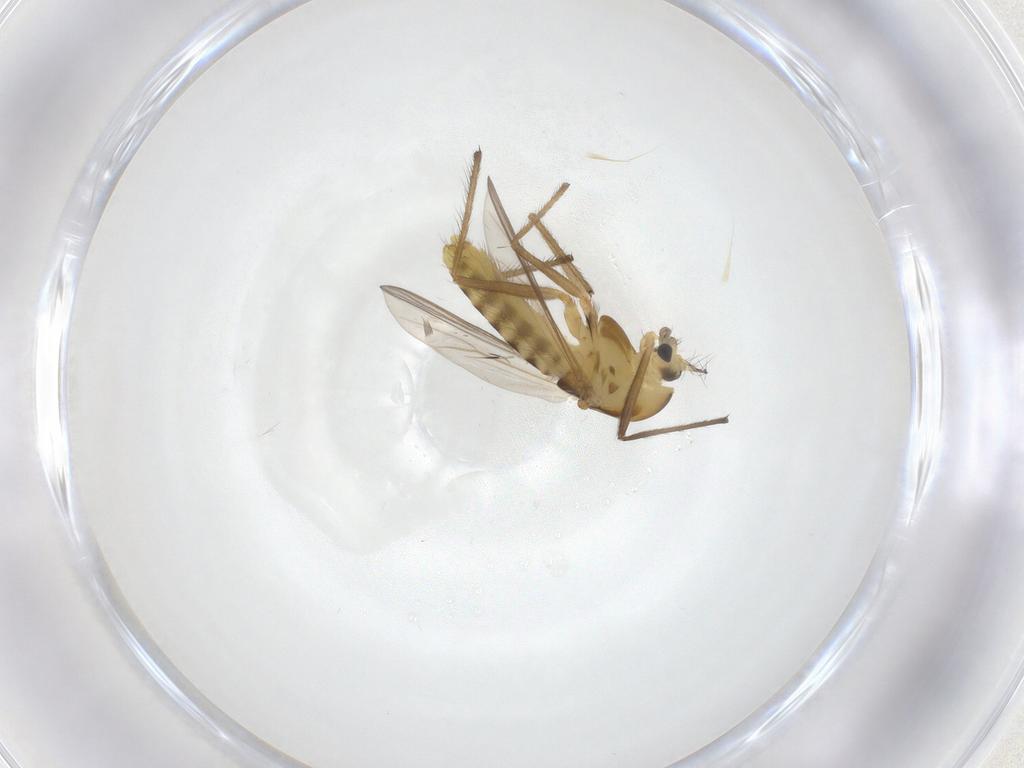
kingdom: Animalia
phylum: Arthropoda
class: Insecta
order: Diptera
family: Chironomidae
